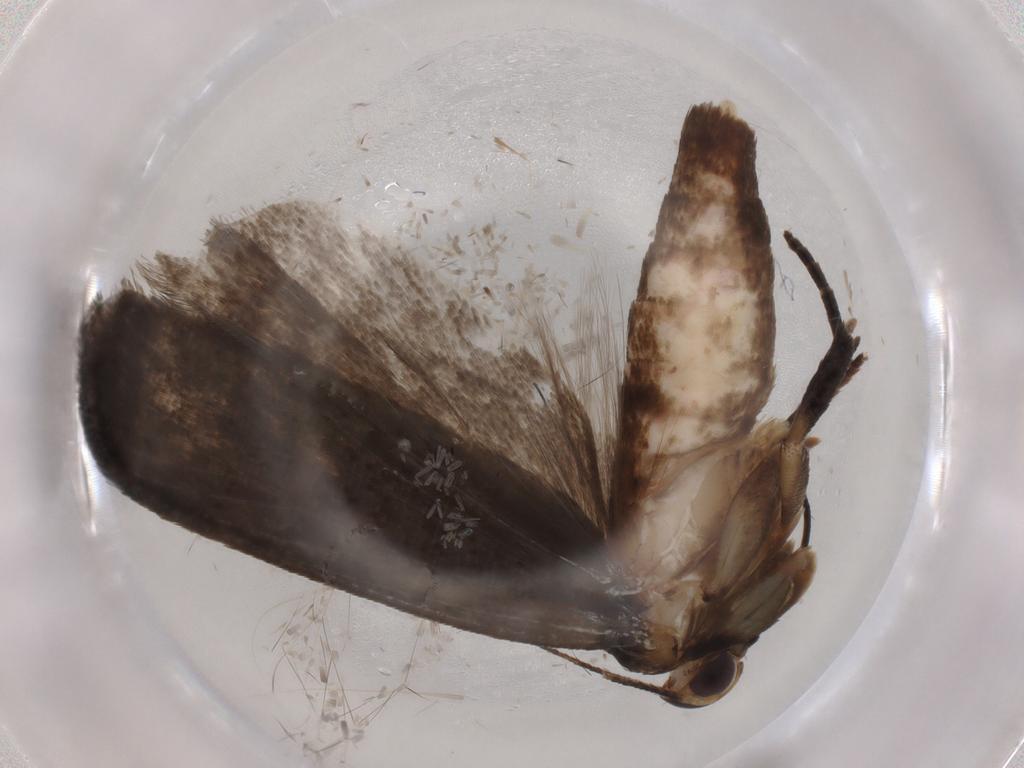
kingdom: Animalia
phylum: Arthropoda
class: Insecta
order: Lepidoptera
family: Gelechiidae
